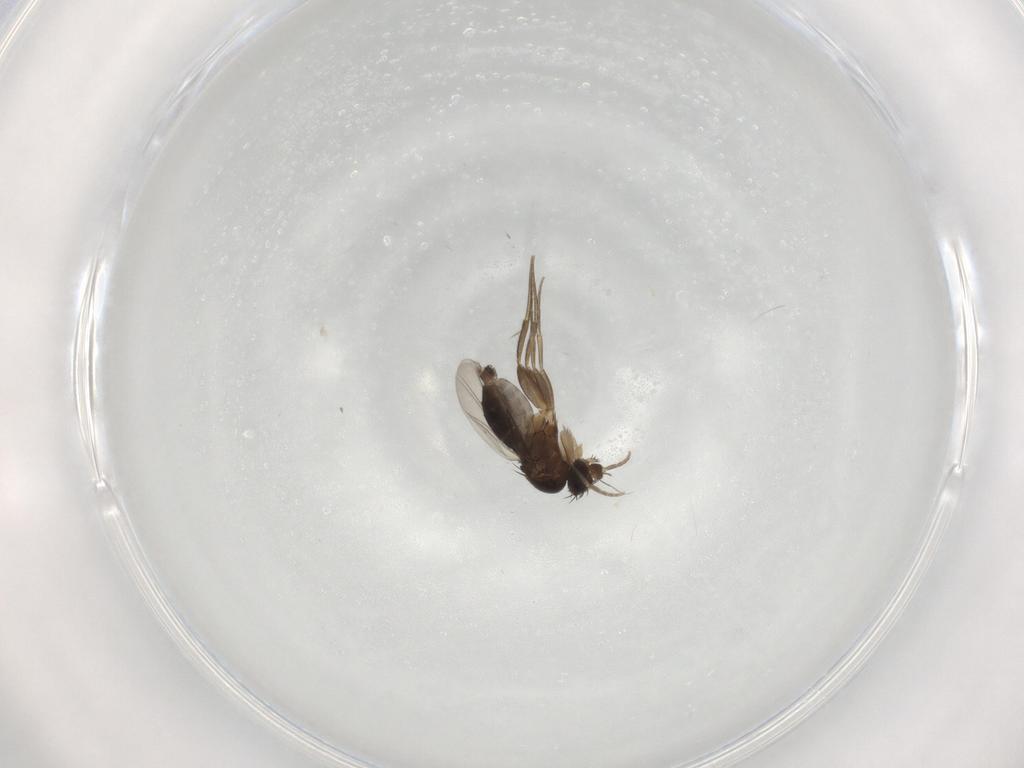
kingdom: Animalia
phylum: Arthropoda
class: Insecta
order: Diptera
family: Phoridae
